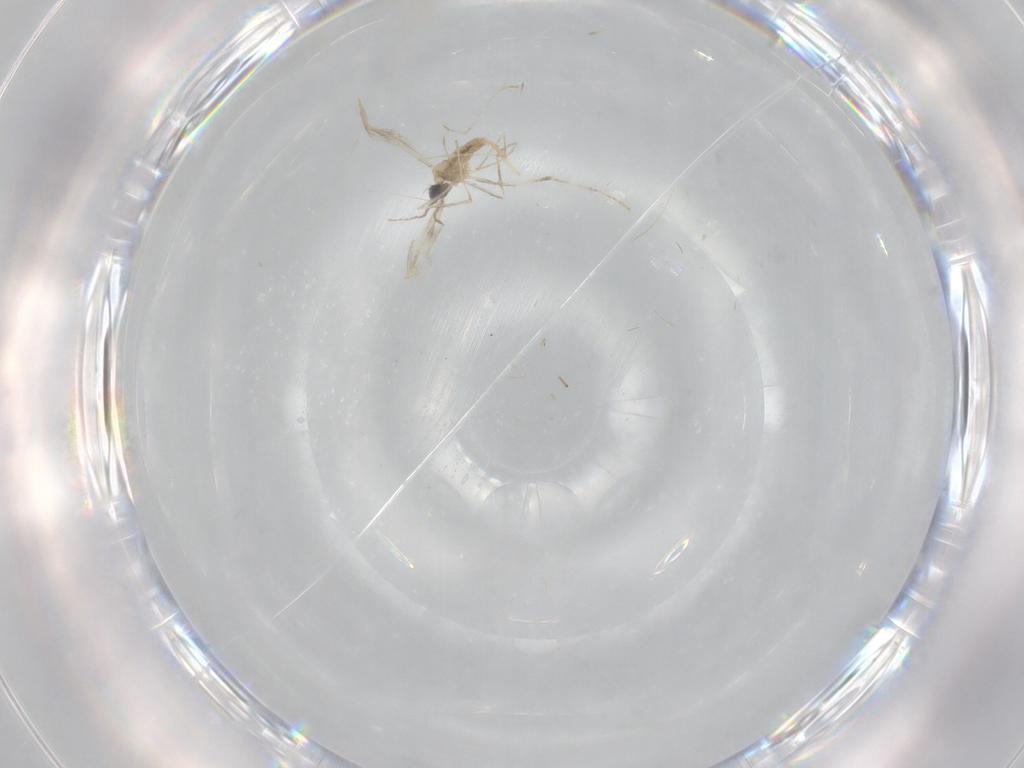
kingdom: Animalia
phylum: Arthropoda
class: Insecta
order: Diptera
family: Cecidomyiidae
